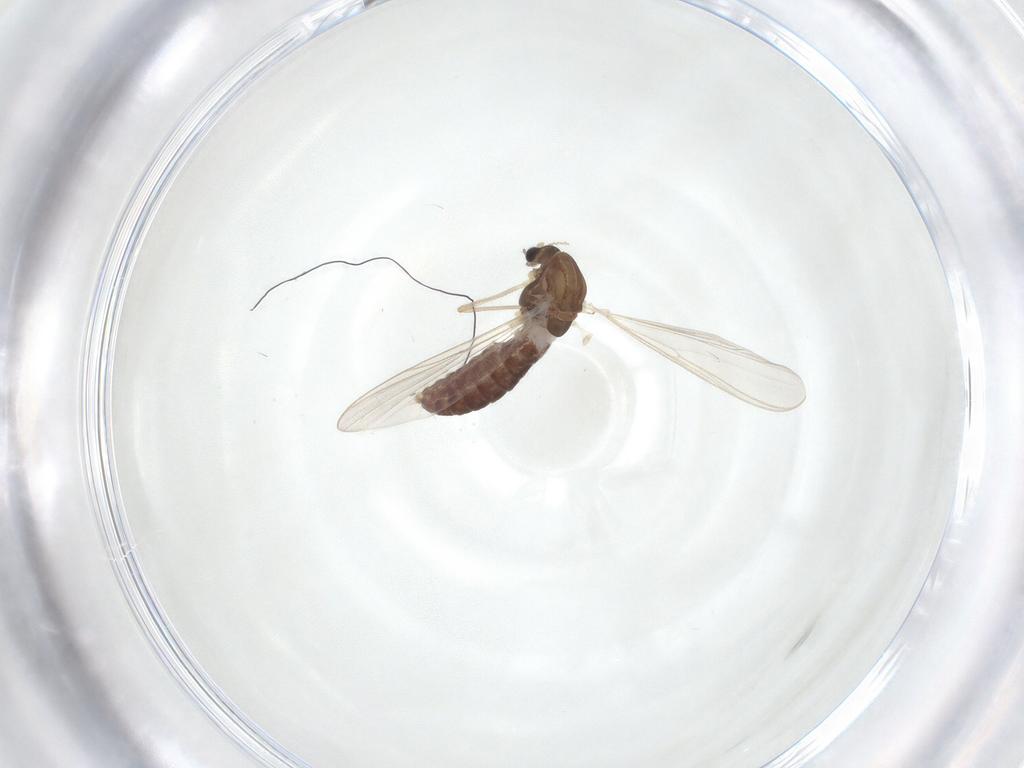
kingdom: Animalia
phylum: Arthropoda
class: Insecta
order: Diptera
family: Chironomidae
